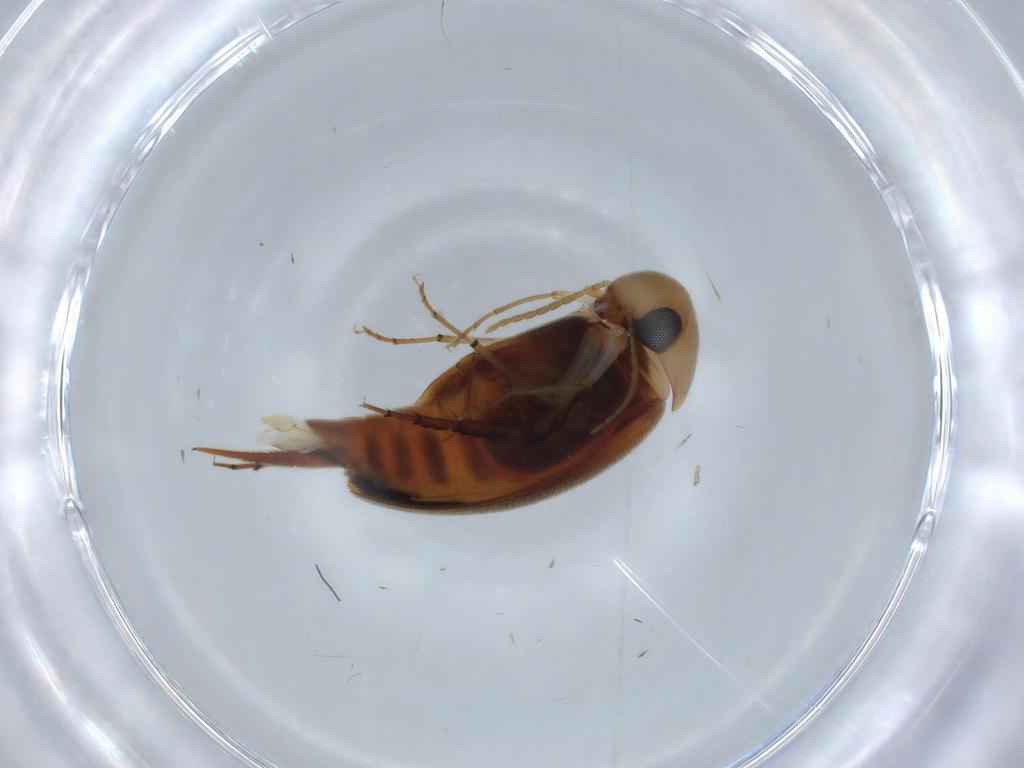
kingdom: Animalia
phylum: Arthropoda
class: Insecta
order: Coleoptera
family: Mordellidae
